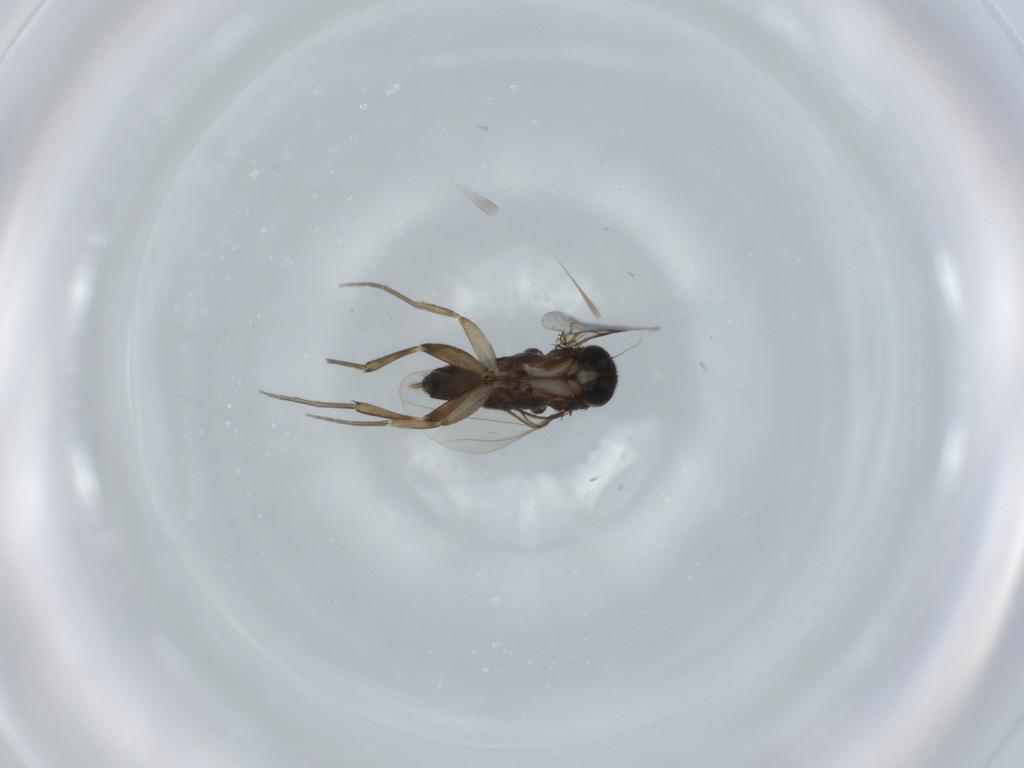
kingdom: Animalia
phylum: Arthropoda
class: Insecta
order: Diptera
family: Phoridae
